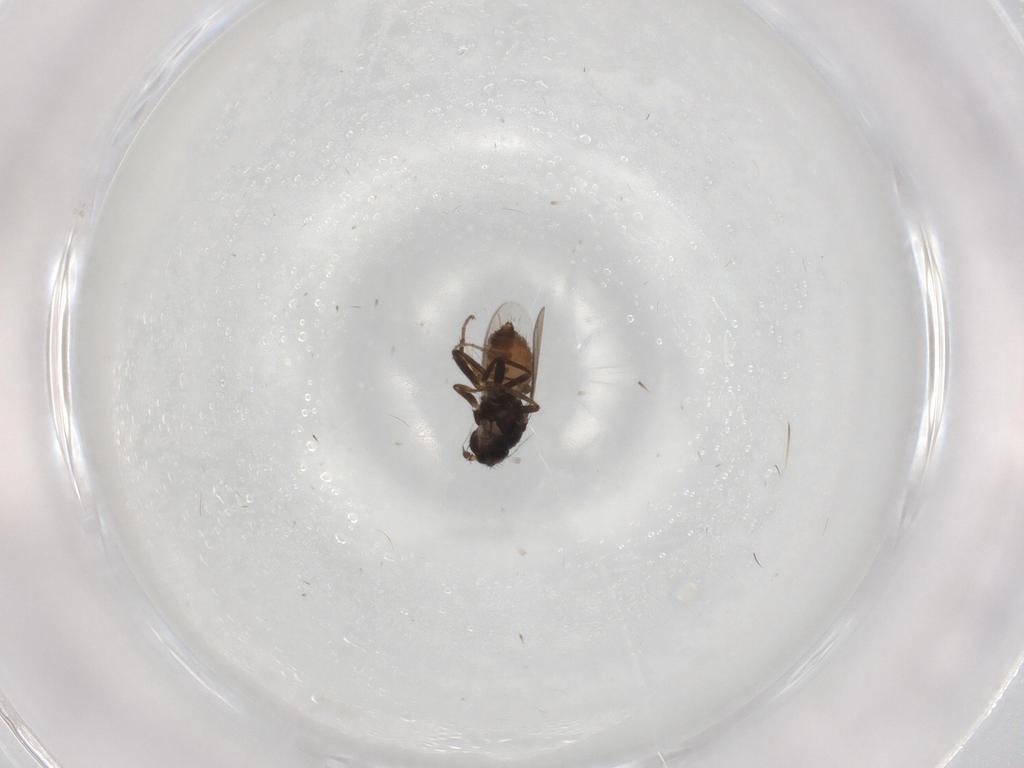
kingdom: Animalia
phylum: Arthropoda
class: Insecta
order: Diptera
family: Sphaeroceridae
